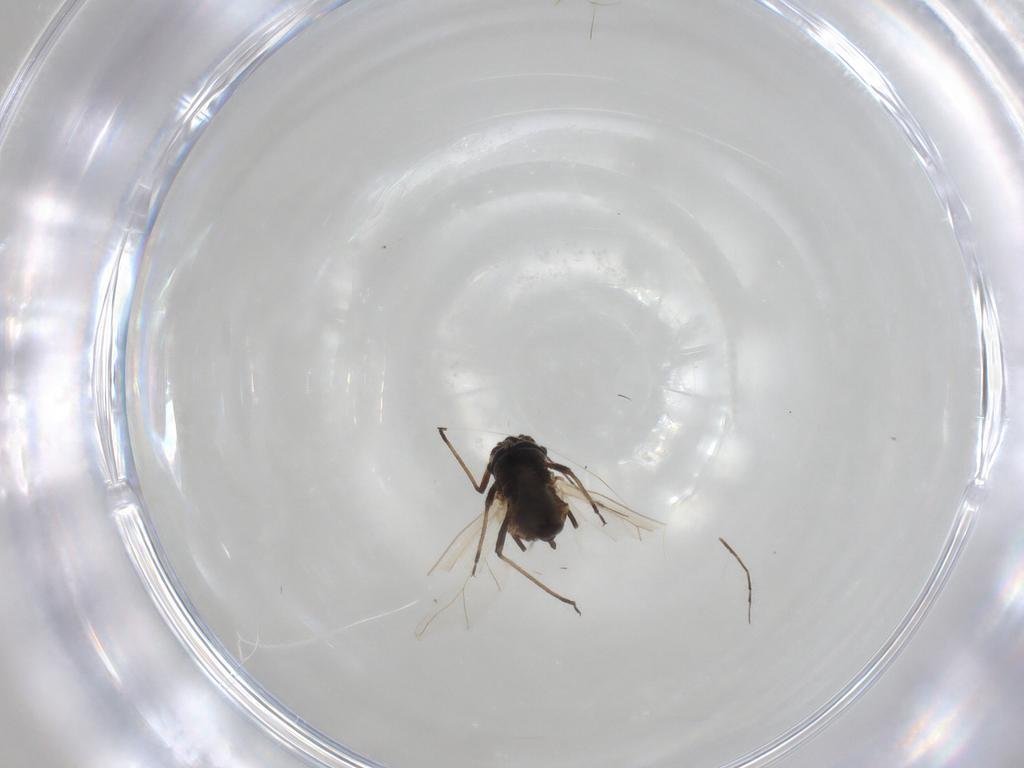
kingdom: Animalia
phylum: Arthropoda
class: Insecta
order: Hemiptera
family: Aphididae
